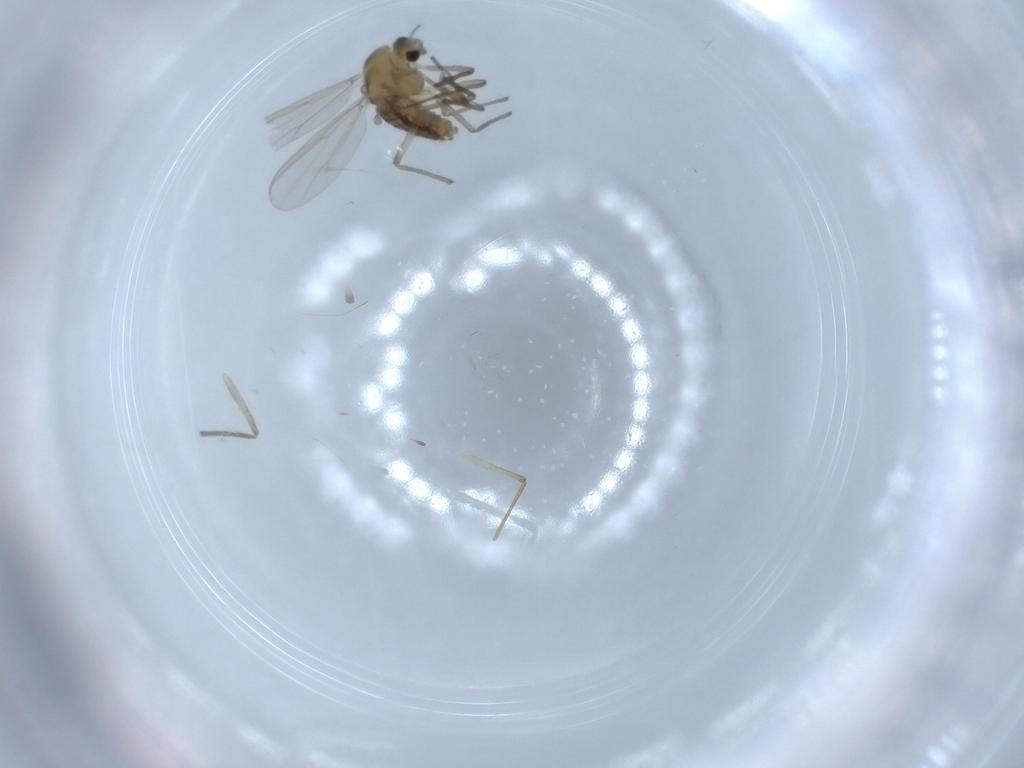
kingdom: Animalia
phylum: Arthropoda
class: Insecta
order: Diptera
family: Chironomidae
